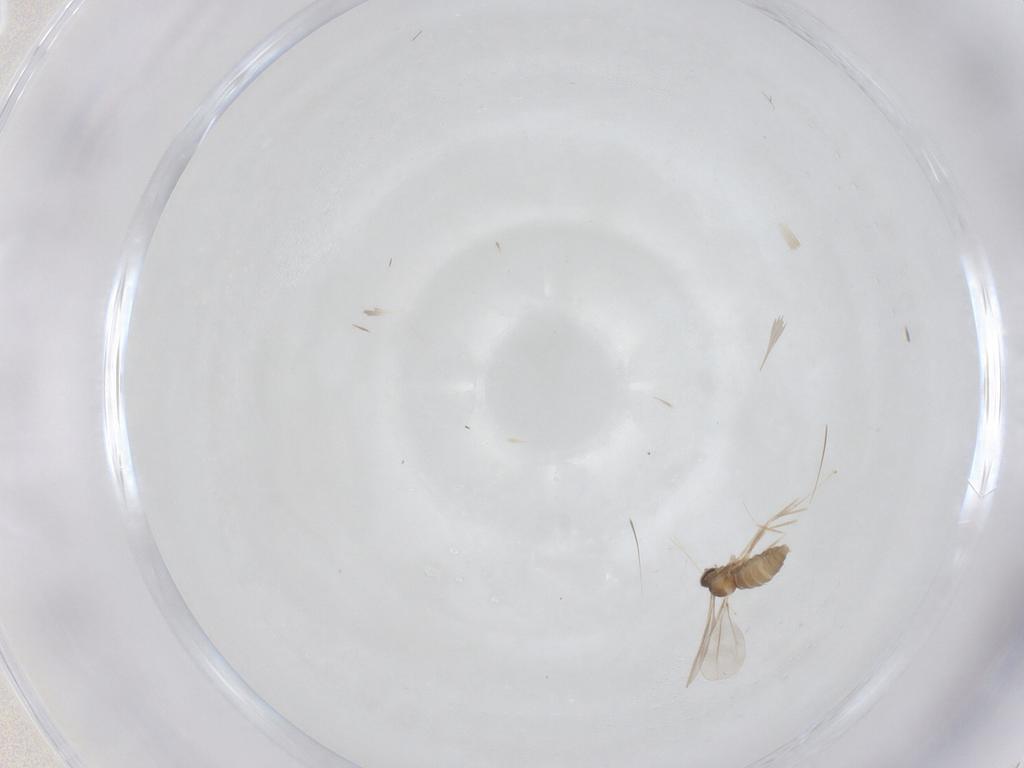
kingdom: Animalia
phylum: Arthropoda
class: Insecta
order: Diptera
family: Cecidomyiidae
